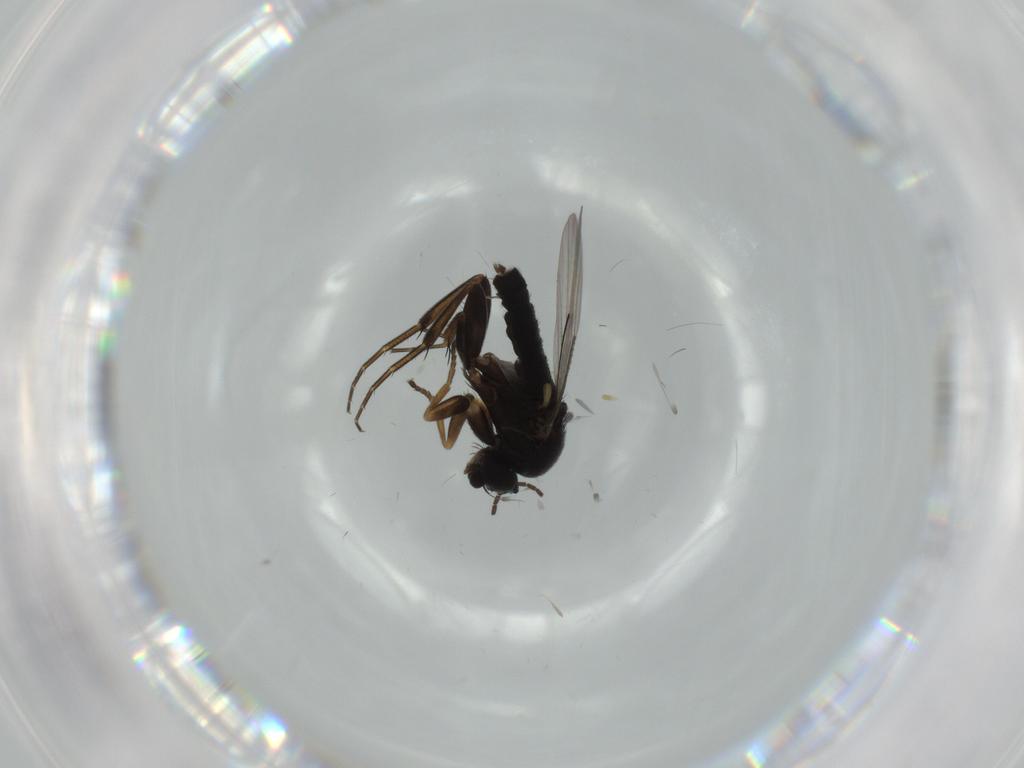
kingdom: Animalia
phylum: Arthropoda
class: Insecta
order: Diptera
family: Phoridae
